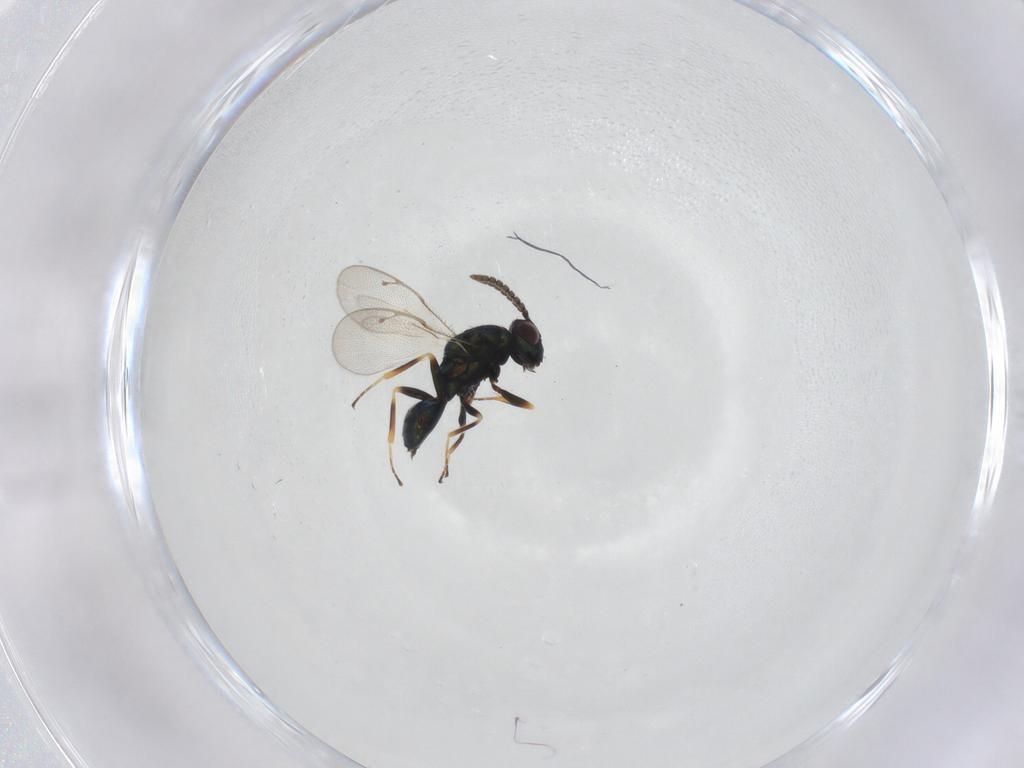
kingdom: Animalia
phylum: Arthropoda
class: Insecta
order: Hymenoptera
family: Pteromalidae
